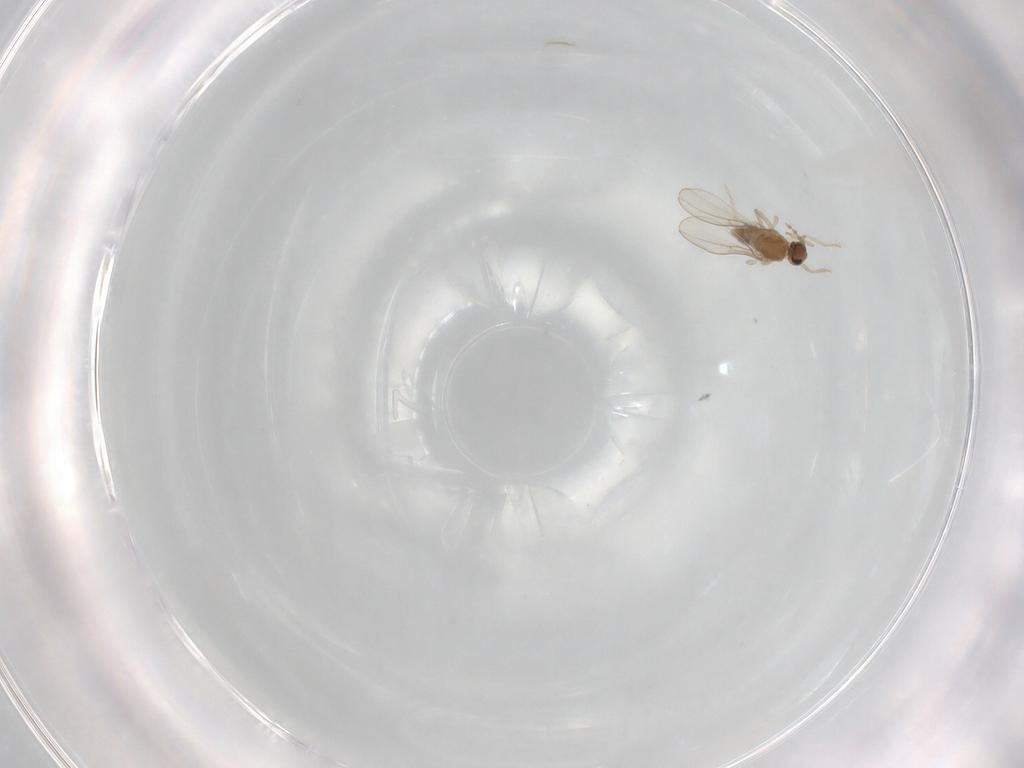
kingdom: Animalia
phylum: Arthropoda
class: Insecta
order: Diptera
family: Cecidomyiidae
